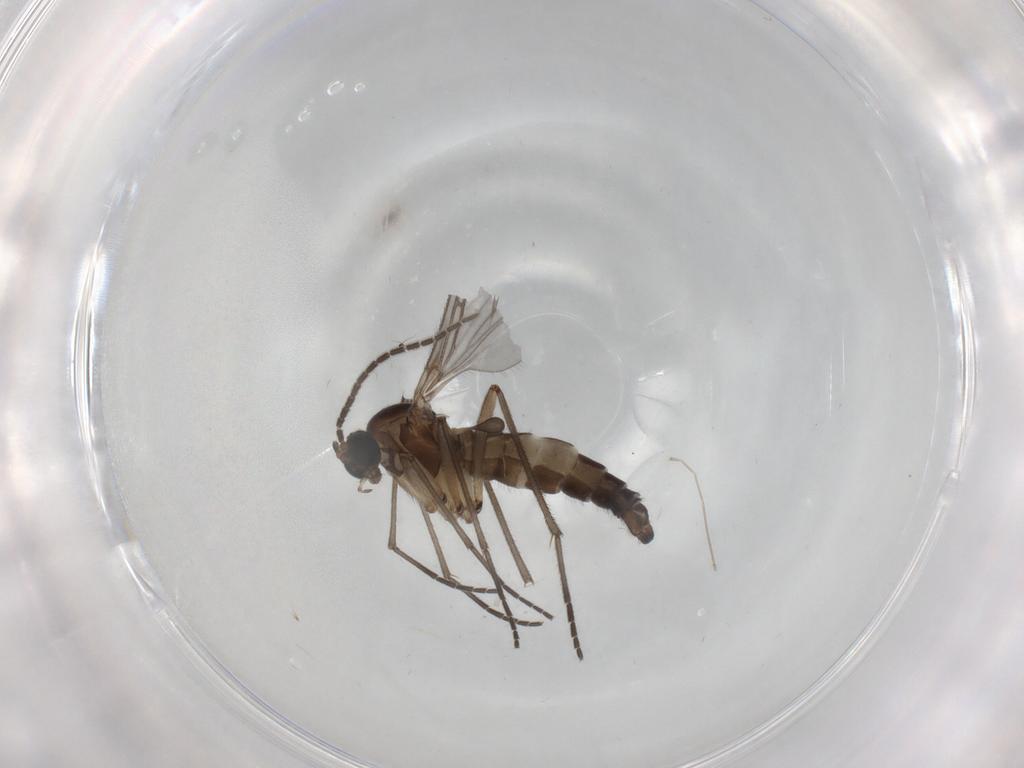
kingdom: Animalia
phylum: Arthropoda
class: Insecta
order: Diptera
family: Sciaridae
